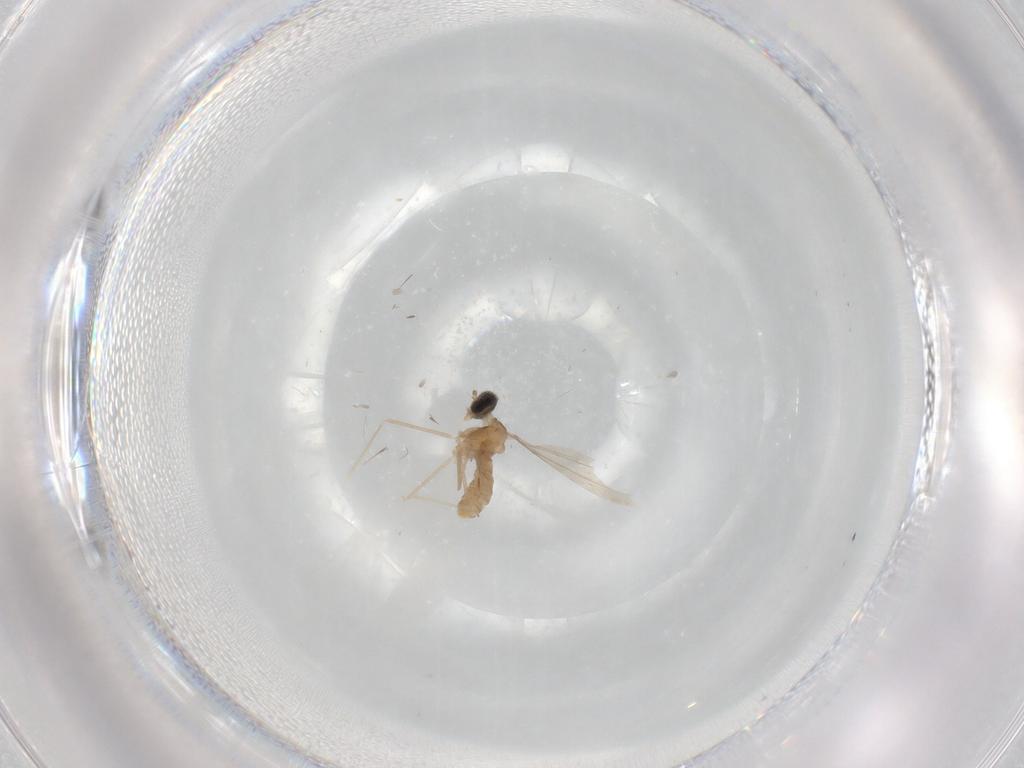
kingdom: Animalia
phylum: Arthropoda
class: Insecta
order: Diptera
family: Cecidomyiidae
